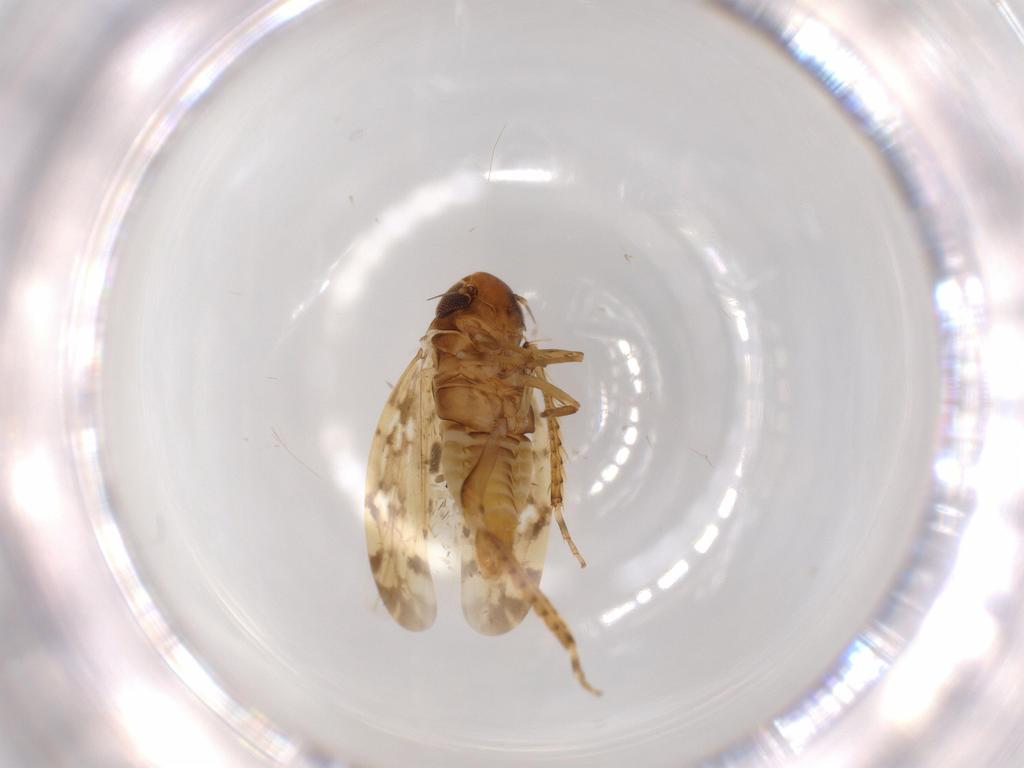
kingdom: Animalia
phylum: Arthropoda
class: Insecta
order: Hemiptera
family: Cicadellidae
